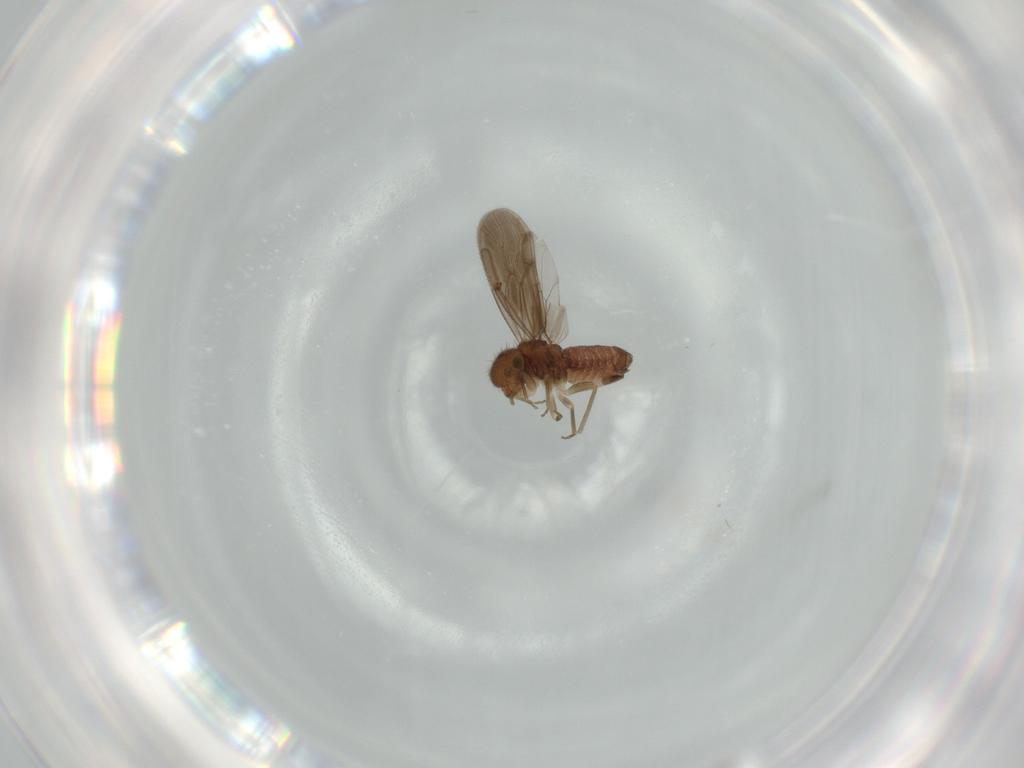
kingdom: Animalia
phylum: Arthropoda
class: Insecta
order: Psocodea
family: Ectopsocidae
